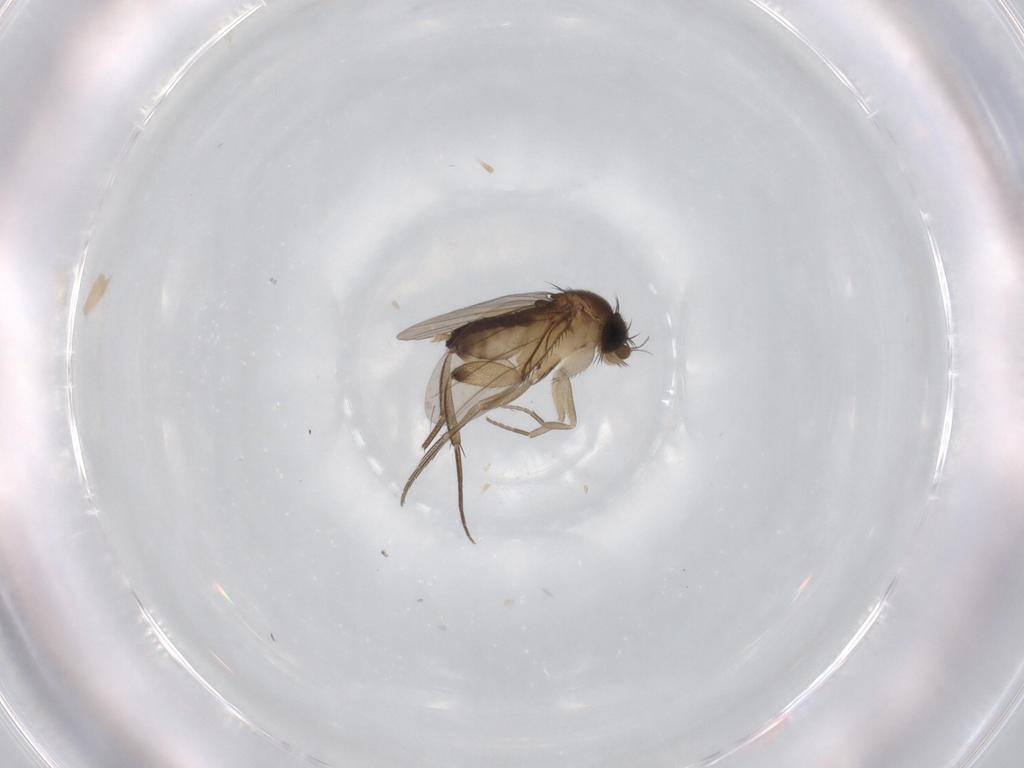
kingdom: Animalia
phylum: Arthropoda
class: Insecta
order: Diptera
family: Phoridae
